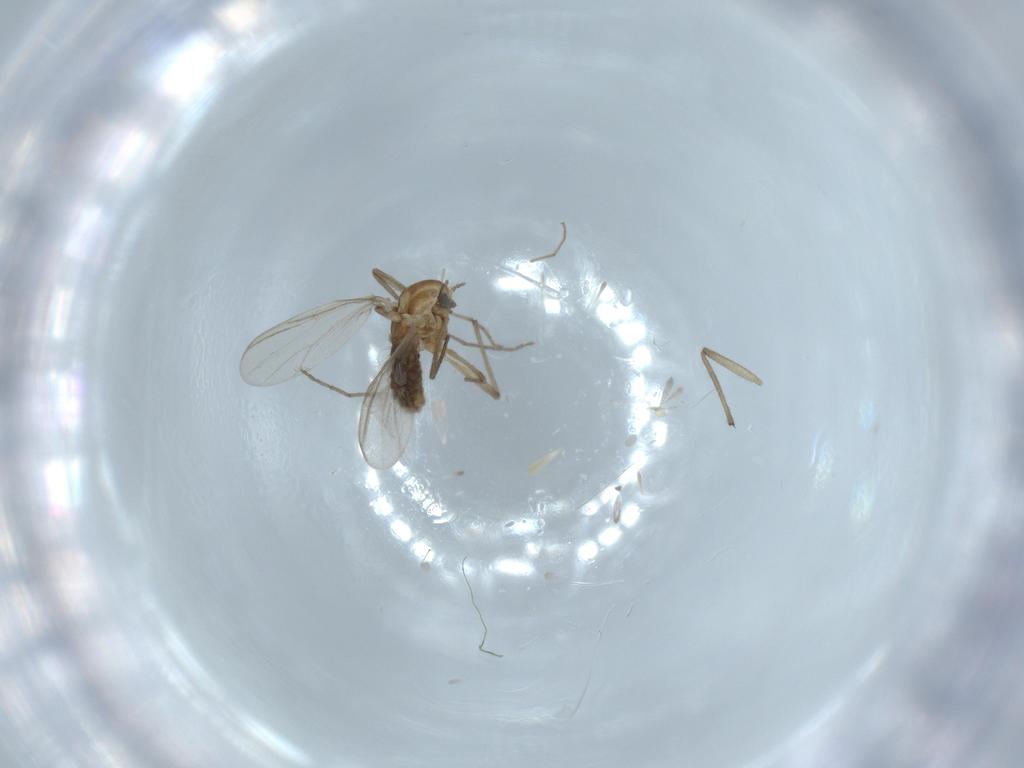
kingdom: Animalia
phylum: Arthropoda
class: Insecta
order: Diptera
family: Chironomidae
